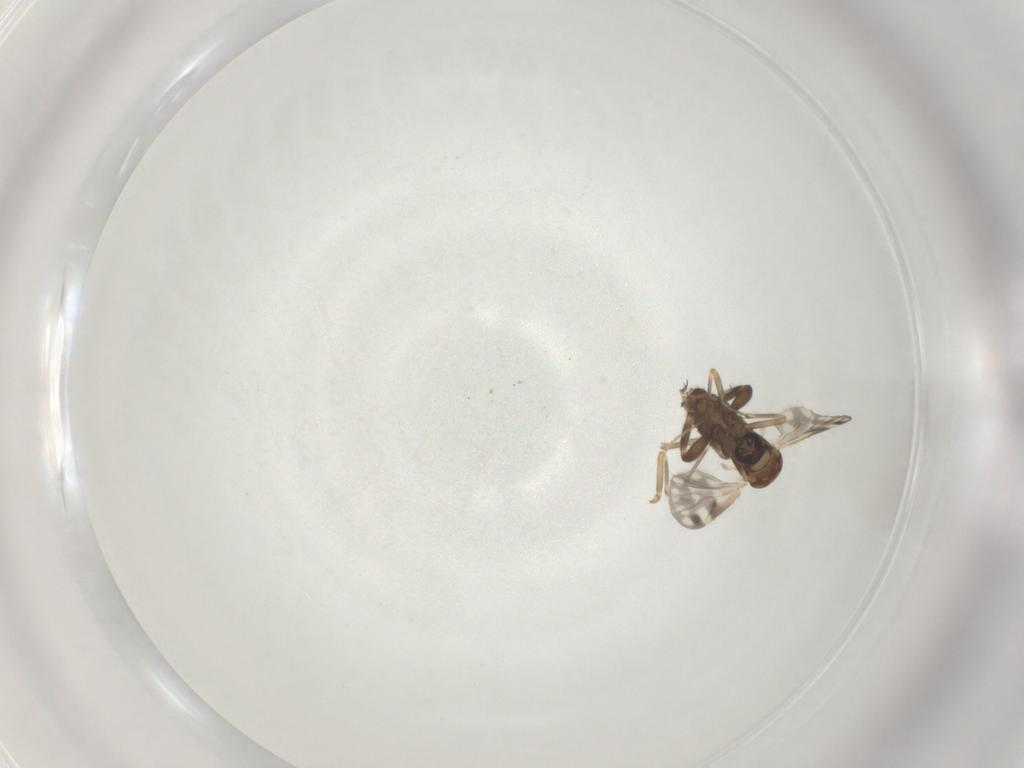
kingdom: Animalia
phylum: Arthropoda
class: Insecta
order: Diptera
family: Ceratopogonidae
